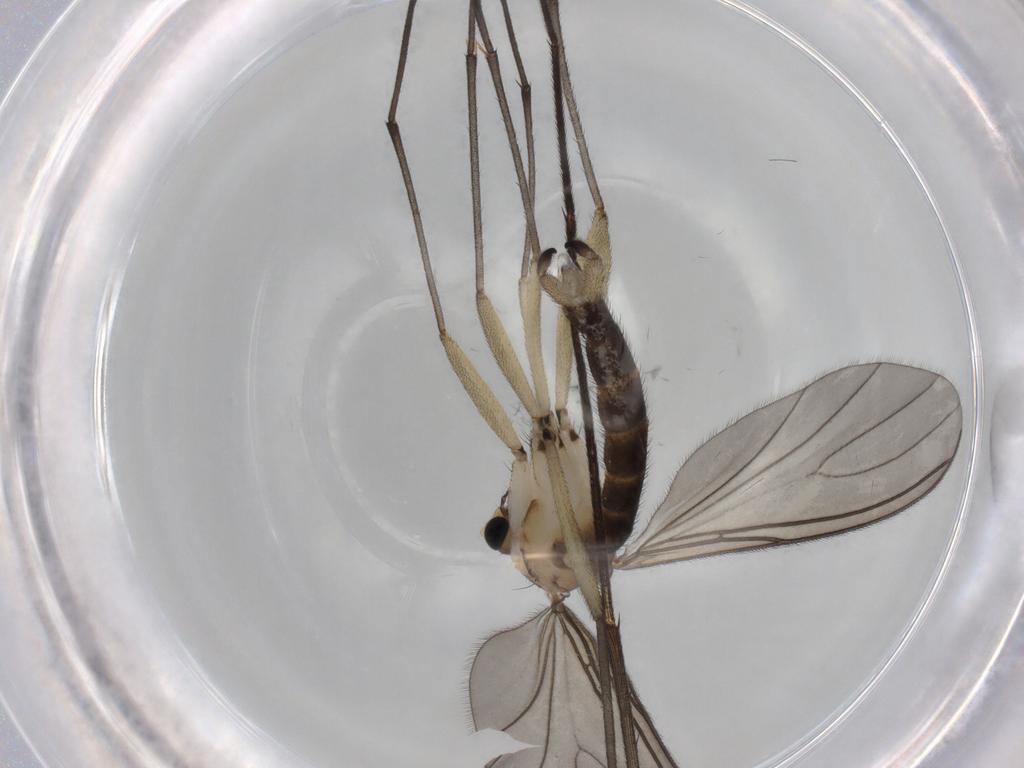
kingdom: Animalia
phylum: Arthropoda
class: Insecta
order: Diptera
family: Sciaridae
